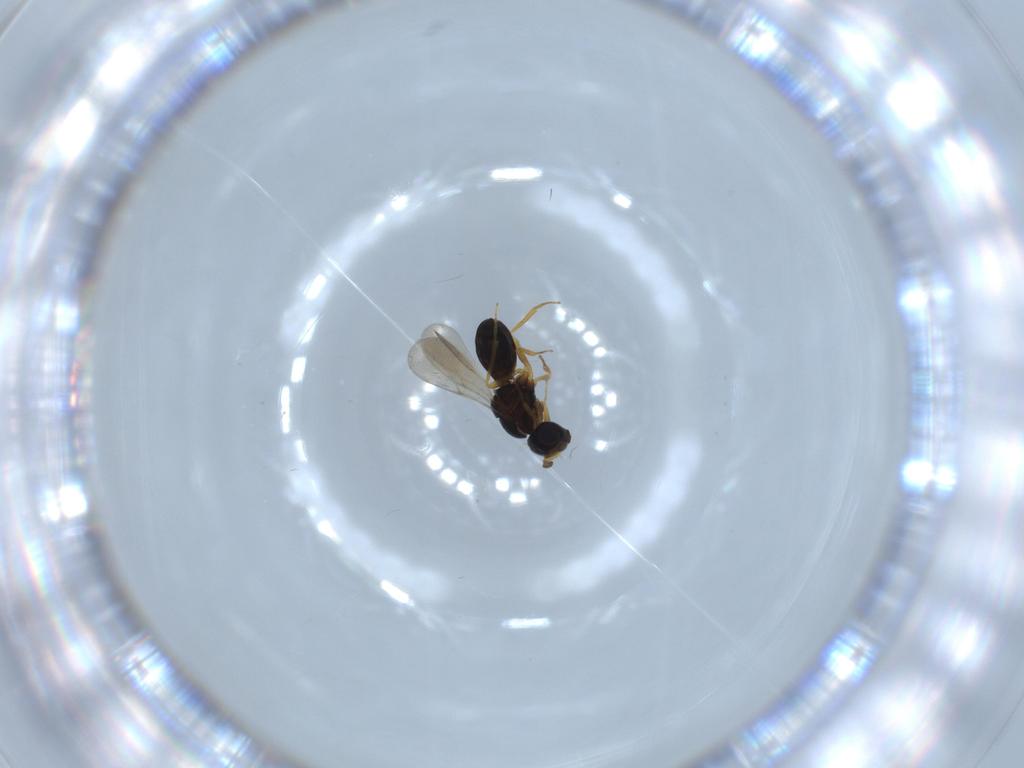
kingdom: Animalia
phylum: Arthropoda
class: Insecta
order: Hymenoptera
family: Scelionidae
